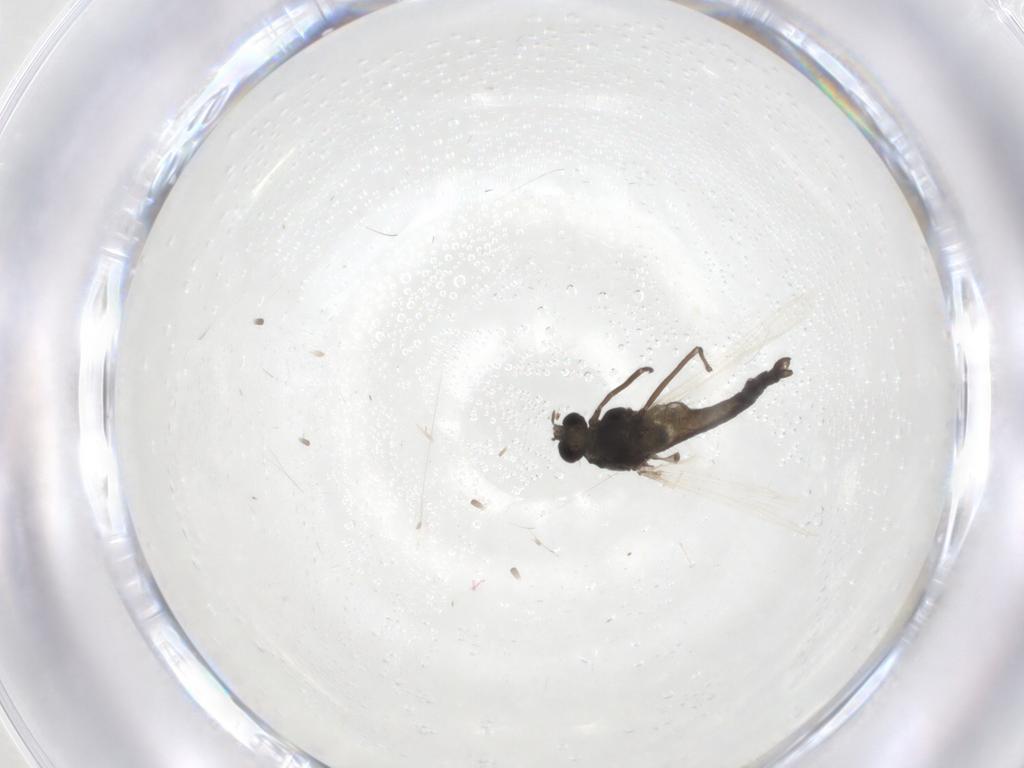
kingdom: Animalia
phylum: Arthropoda
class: Insecta
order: Diptera
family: Chironomidae
